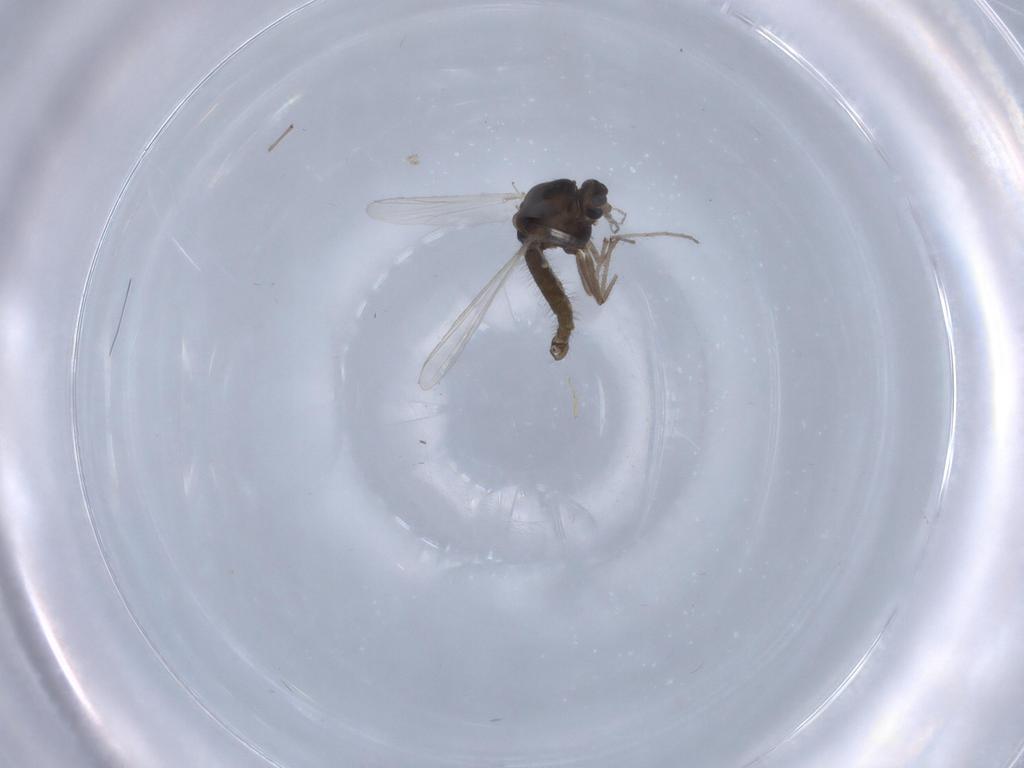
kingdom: Animalia
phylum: Arthropoda
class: Insecta
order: Diptera
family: Chironomidae
